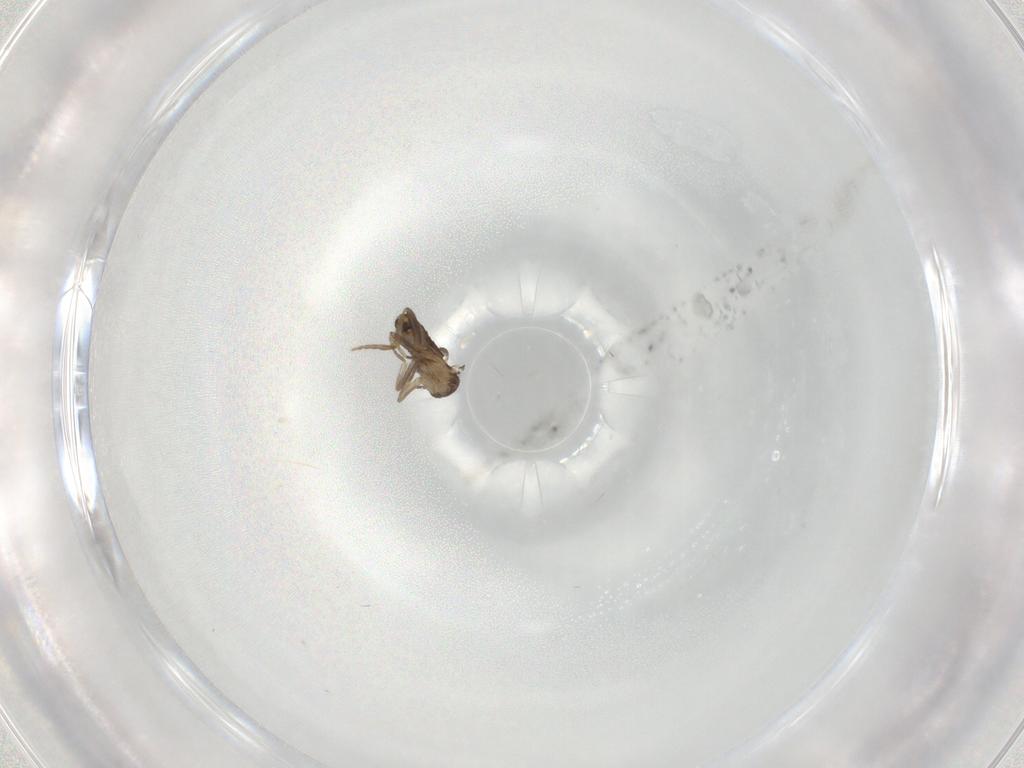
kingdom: Animalia
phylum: Arthropoda
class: Insecta
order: Diptera
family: Phoridae
